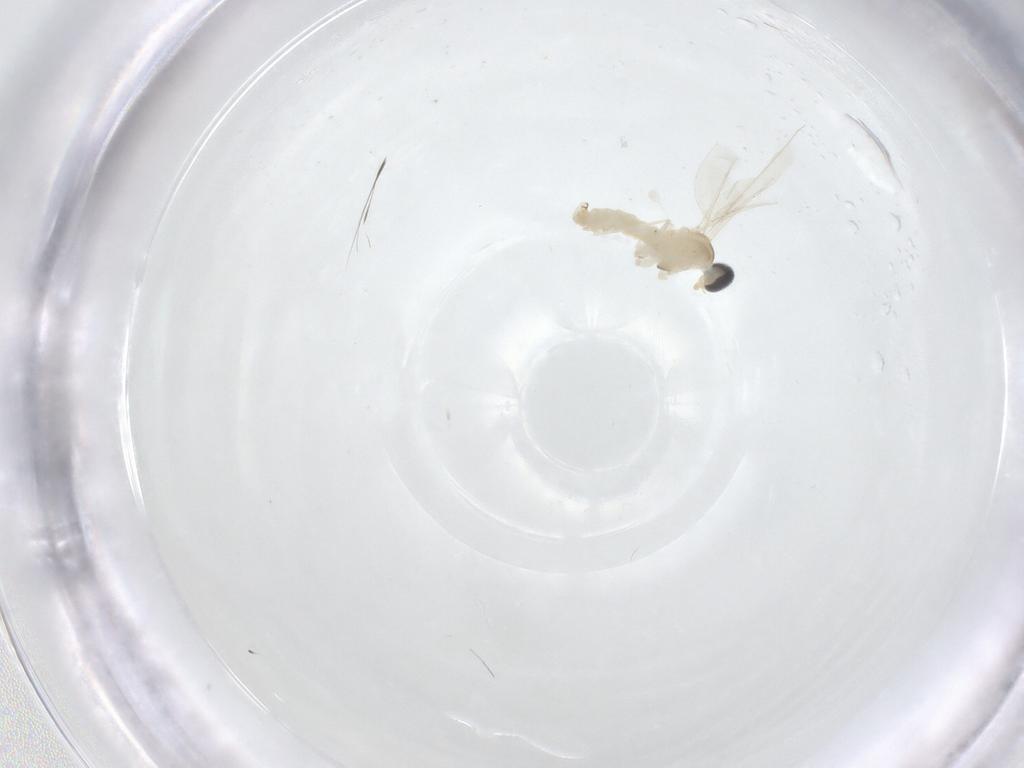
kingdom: Animalia
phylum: Arthropoda
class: Insecta
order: Diptera
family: Cecidomyiidae
